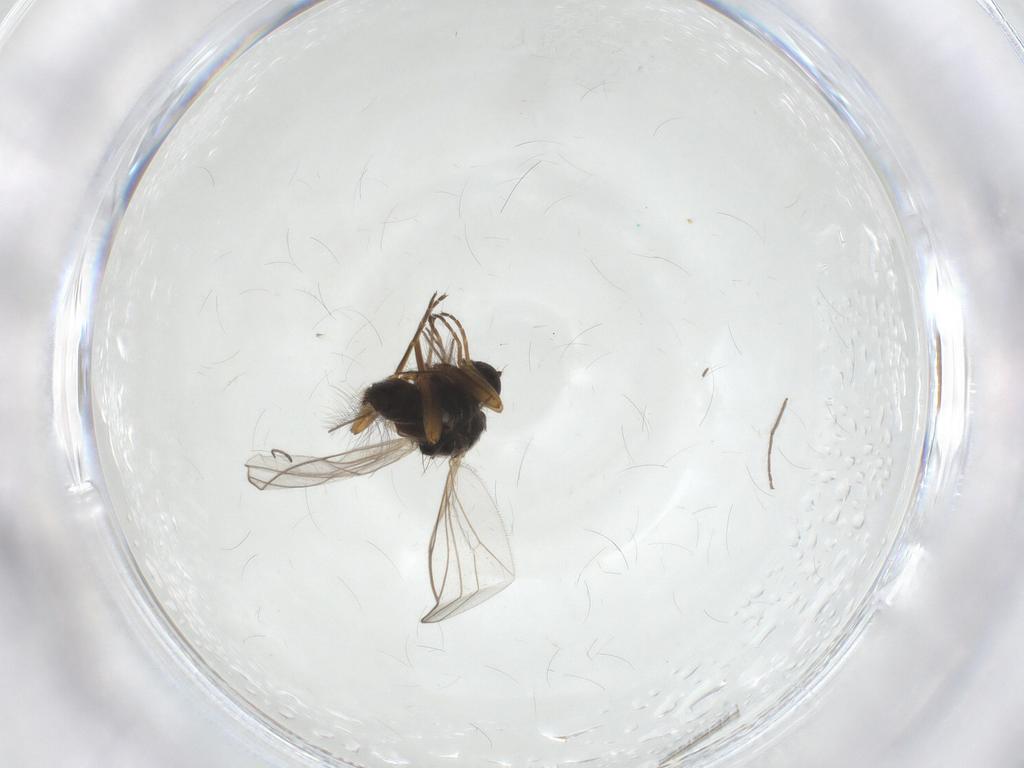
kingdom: Animalia
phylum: Arthropoda
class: Insecta
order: Diptera
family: Hybotidae
